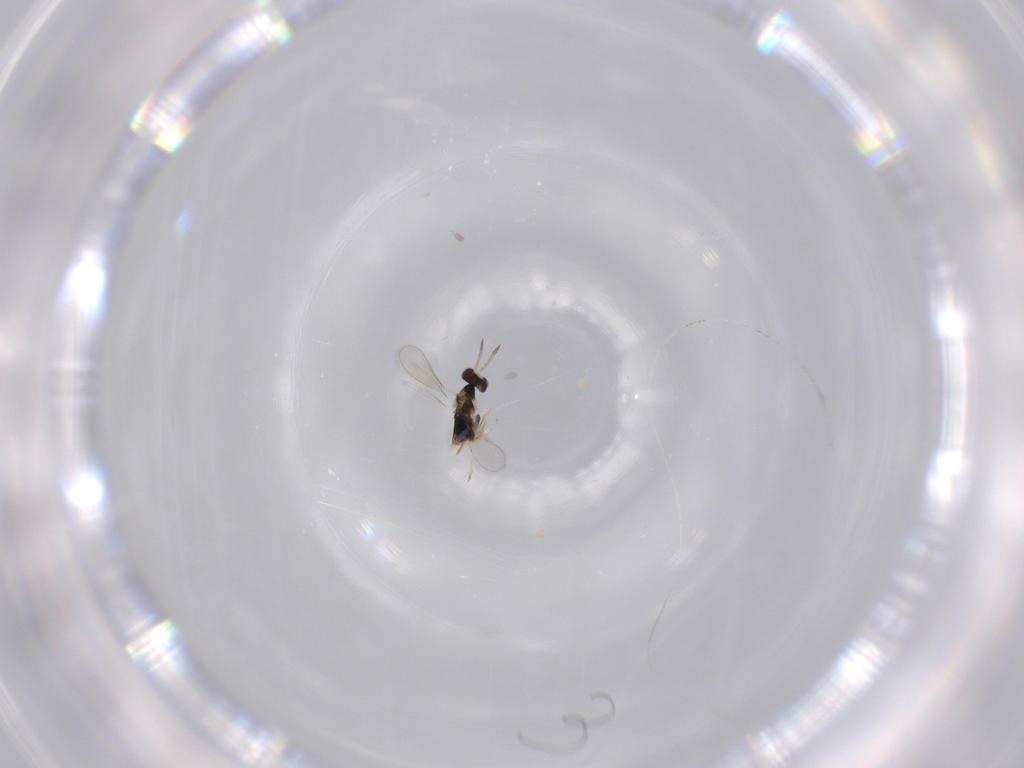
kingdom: Animalia
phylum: Arthropoda
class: Insecta
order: Hymenoptera
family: Aphelinidae
